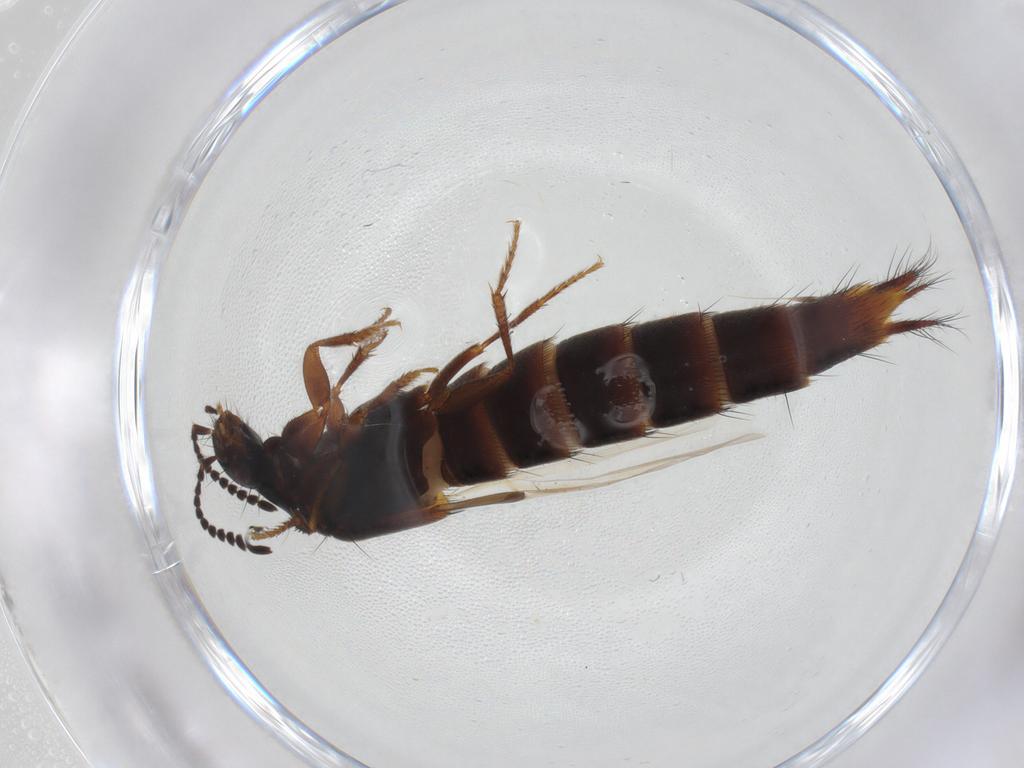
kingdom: Animalia
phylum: Arthropoda
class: Insecta
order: Coleoptera
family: Staphylinidae
